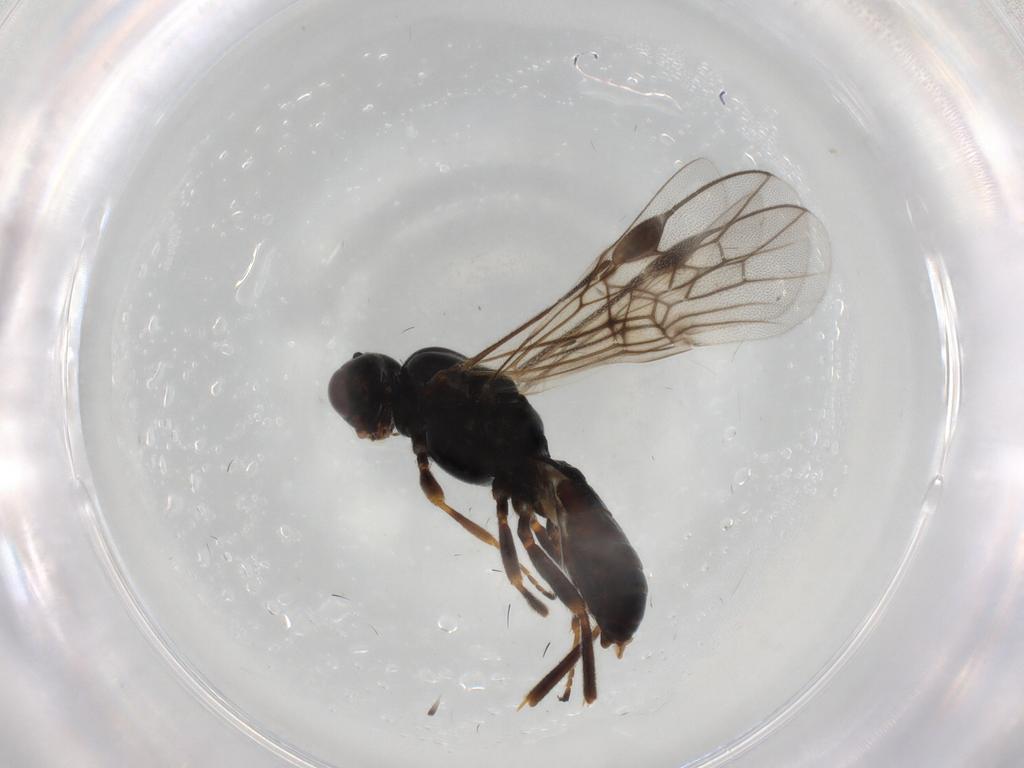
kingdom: Animalia
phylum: Arthropoda
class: Insecta
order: Hymenoptera
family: Braconidae
